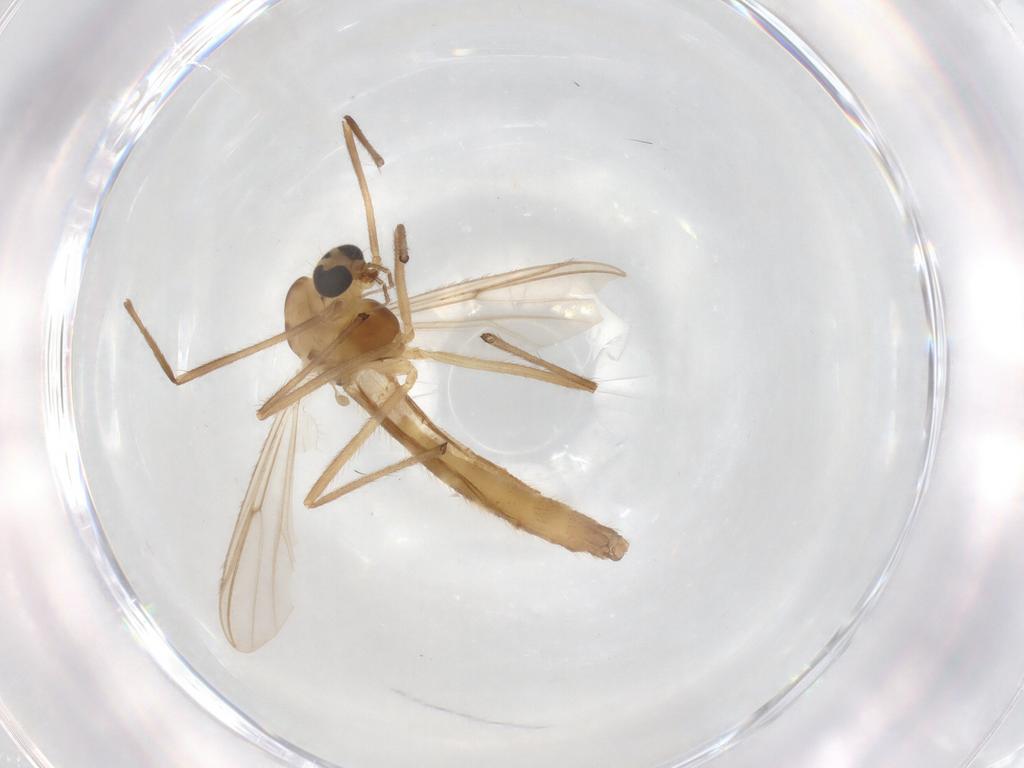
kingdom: Animalia
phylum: Arthropoda
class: Insecta
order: Diptera
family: Chironomidae
